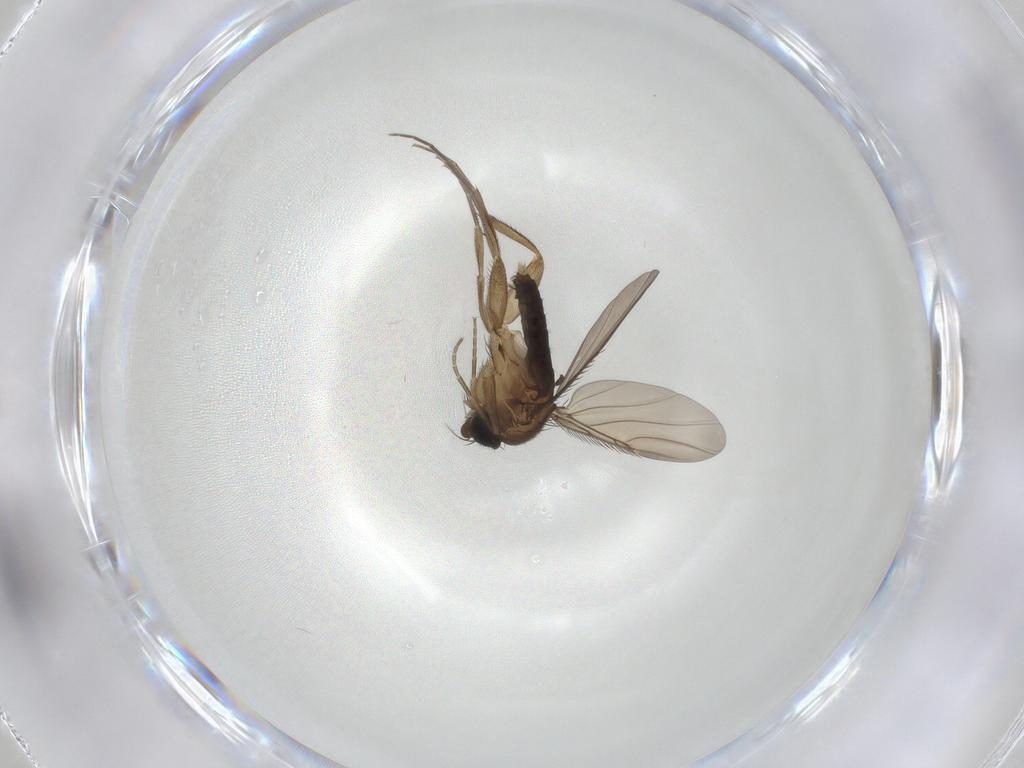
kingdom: Animalia
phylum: Arthropoda
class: Insecta
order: Diptera
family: Phoridae
